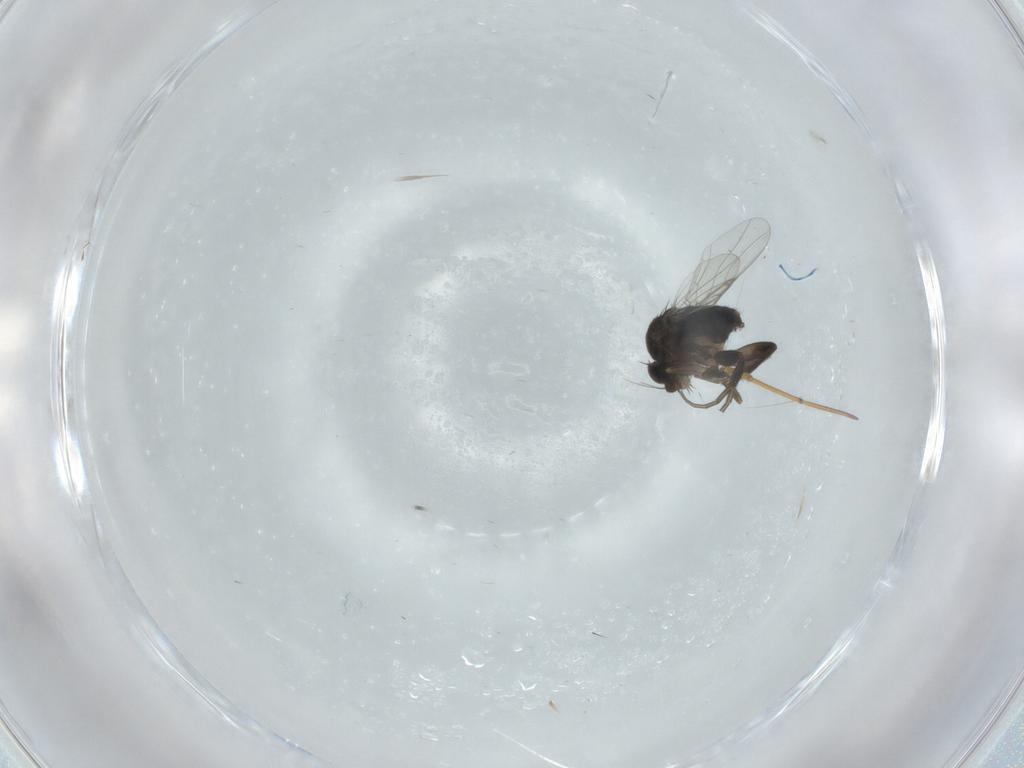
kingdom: Animalia
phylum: Arthropoda
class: Insecta
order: Diptera
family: Phoridae
